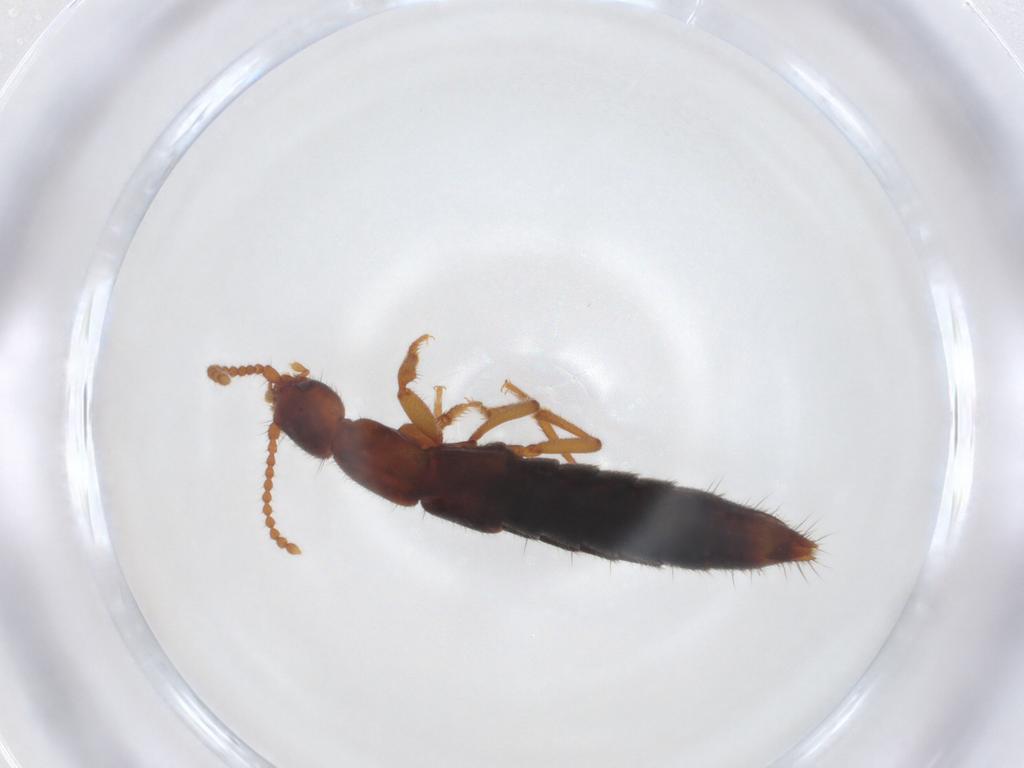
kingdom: Animalia
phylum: Arthropoda
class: Insecta
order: Coleoptera
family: Staphylinidae
